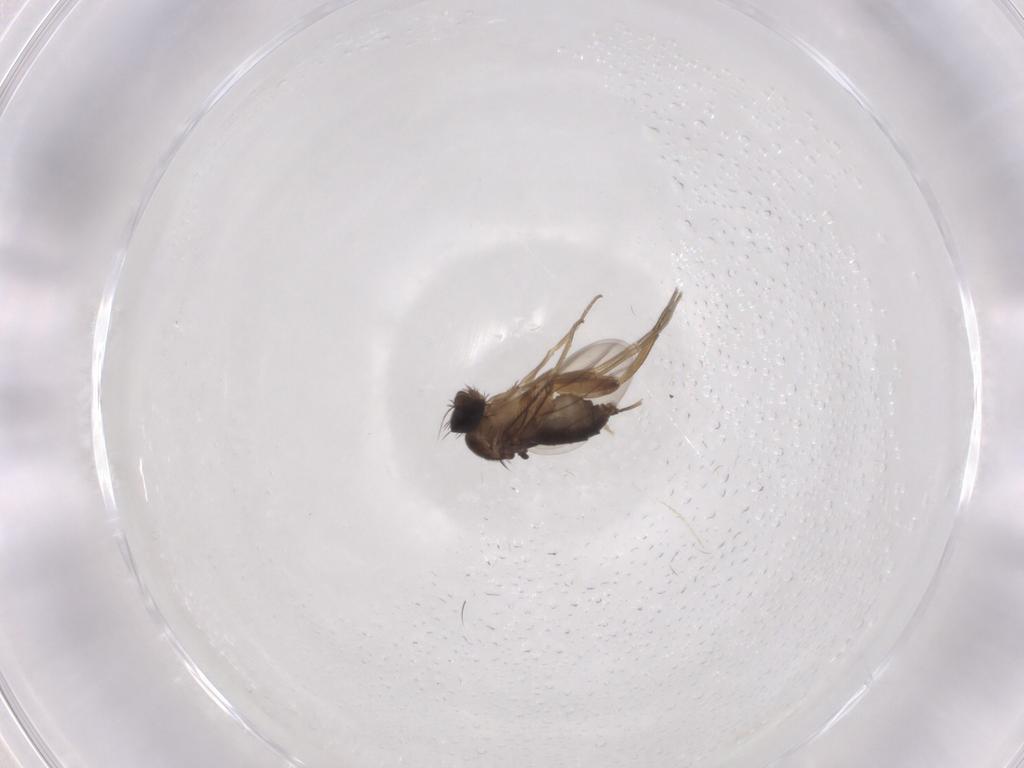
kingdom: Animalia
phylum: Arthropoda
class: Insecta
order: Diptera
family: Phoridae
